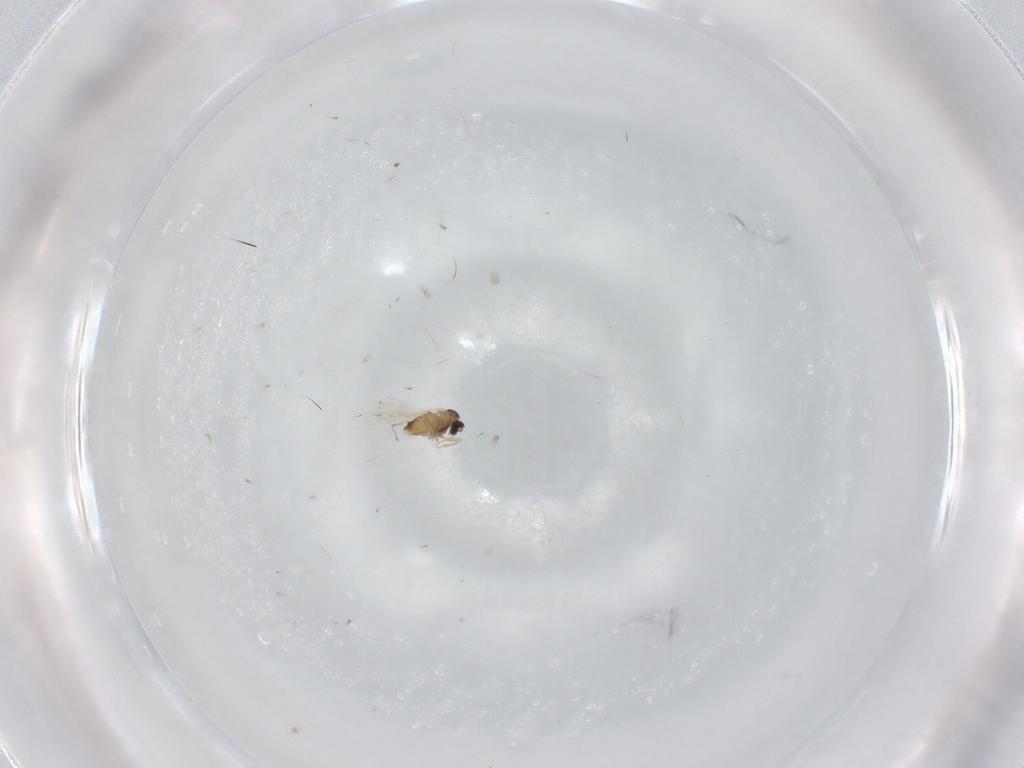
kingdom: Animalia
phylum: Arthropoda
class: Insecta
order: Diptera
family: Cecidomyiidae
